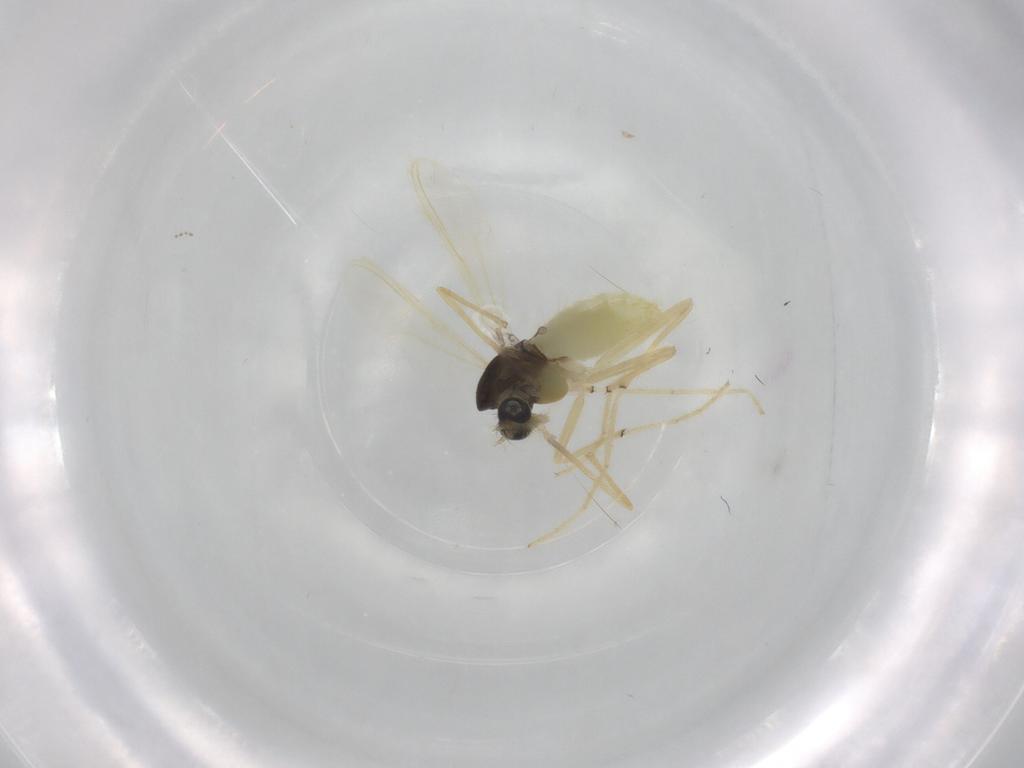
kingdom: Animalia
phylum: Arthropoda
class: Insecta
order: Diptera
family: Chironomidae
